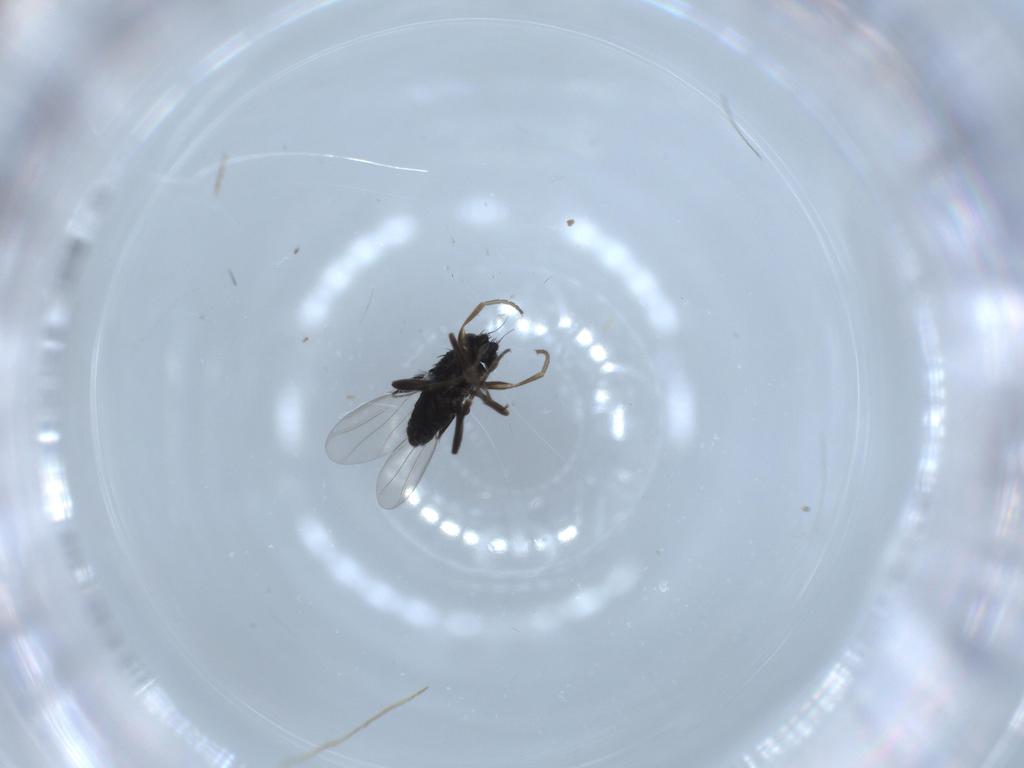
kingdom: Animalia
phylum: Arthropoda
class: Insecta
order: Diptera
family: Phoridae
